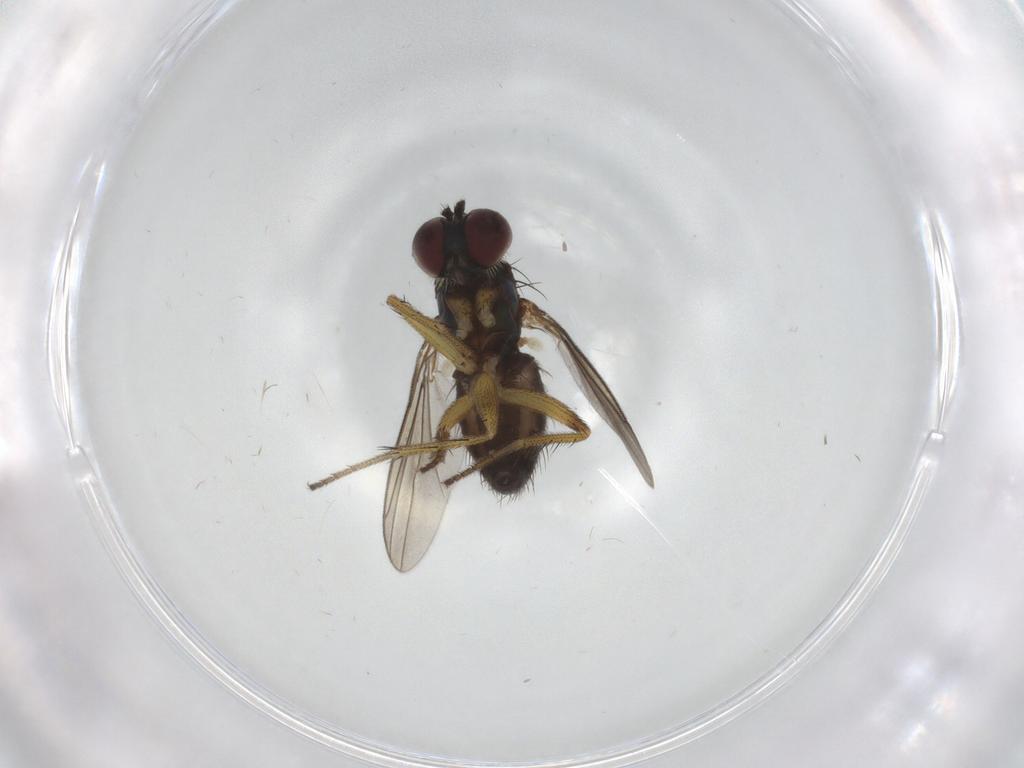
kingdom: Animalia
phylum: Arthropoda
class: Insecta
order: Diptera
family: Dolichopodidae
